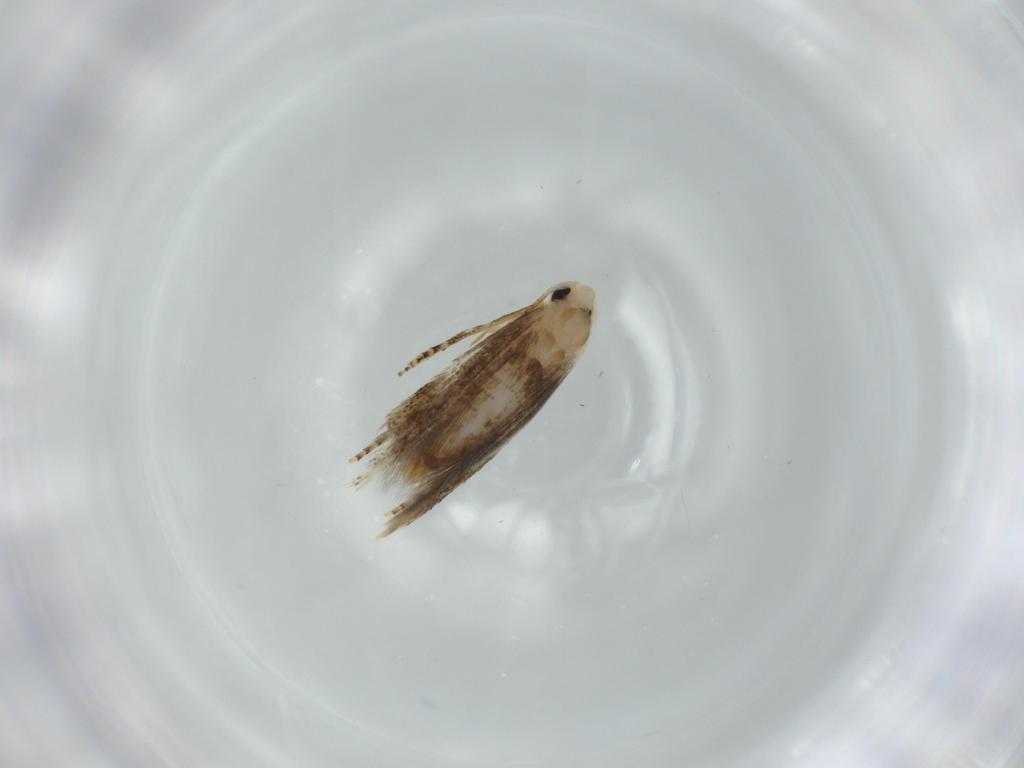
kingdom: Animalia
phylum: Arthropoda
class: Insecta
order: Lepidoptera
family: Bucculatricidae
